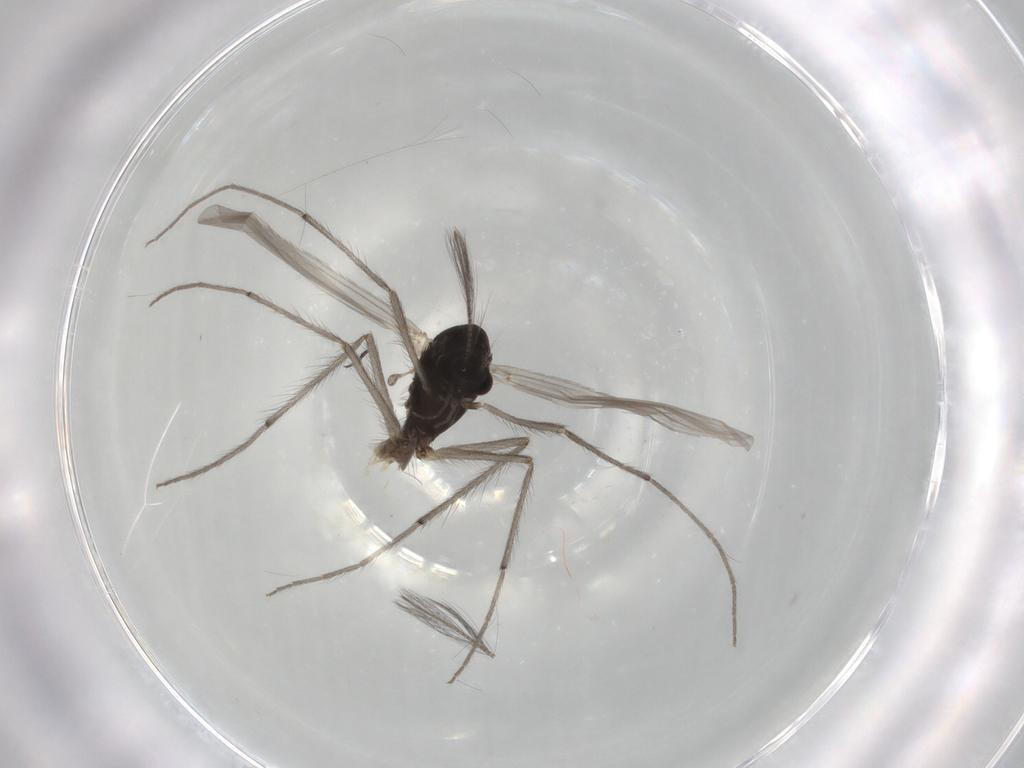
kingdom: Animalia
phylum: Arthropoda
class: Insecta
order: Diptera
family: Chironomidae
